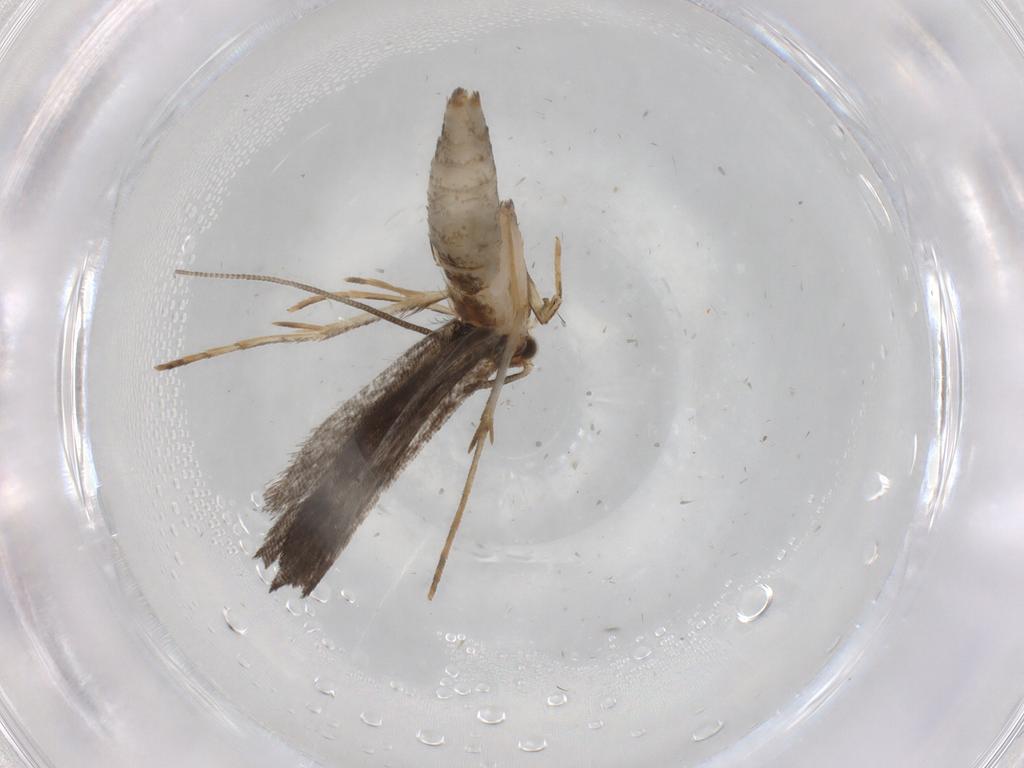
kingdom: Animalia
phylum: Arthropoda
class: Insecta
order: Lepidoptera
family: Tineidae
